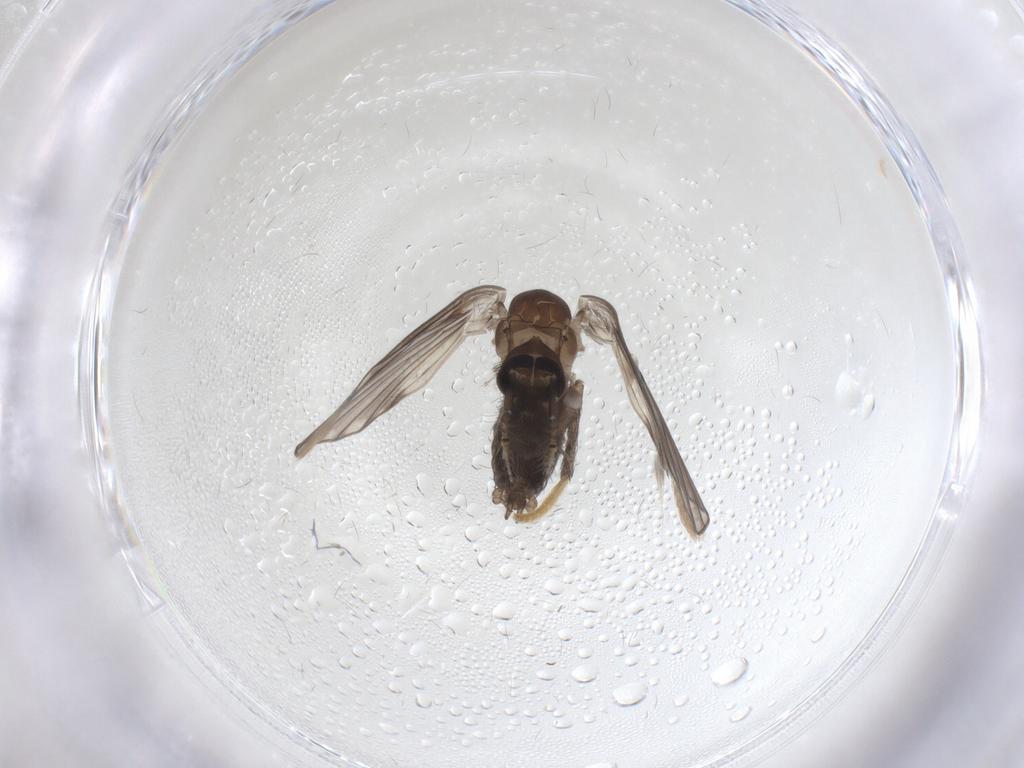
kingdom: Animalia
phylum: Arthropoda
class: Insecta
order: Diptera
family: Psychodidae
